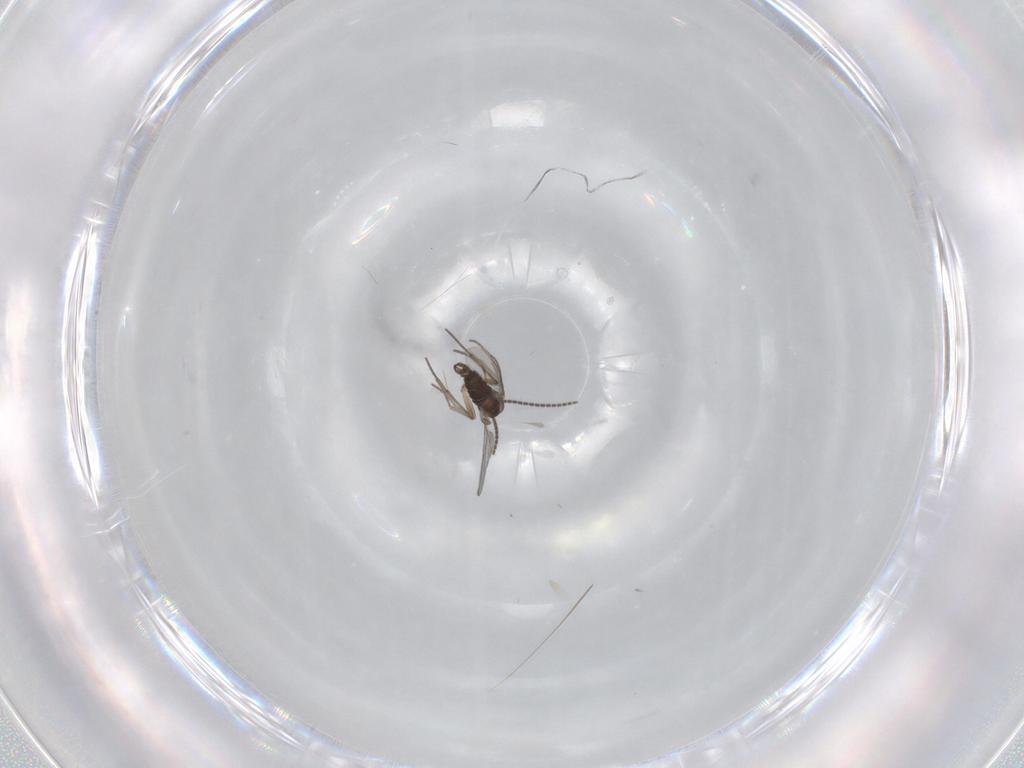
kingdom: Animalia
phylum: Arthropoda
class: Insecta
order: Diptera
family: Sciaridae
